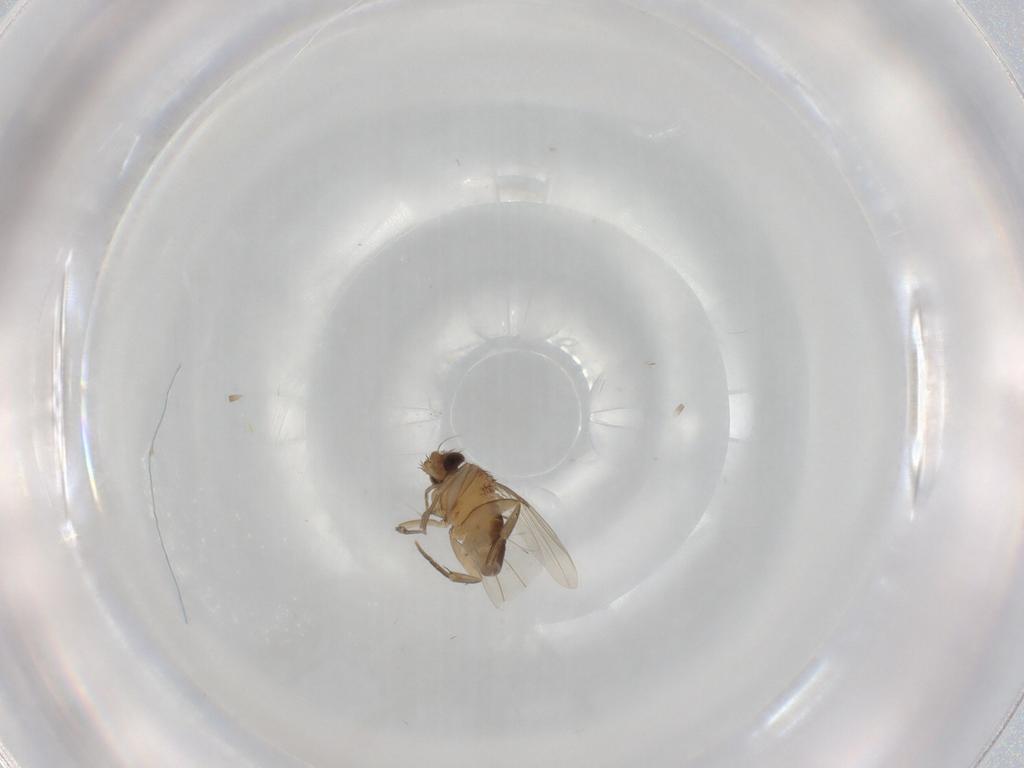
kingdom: Animalia
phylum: Arthropoda
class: Insecta
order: Diptera
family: Phoridae
